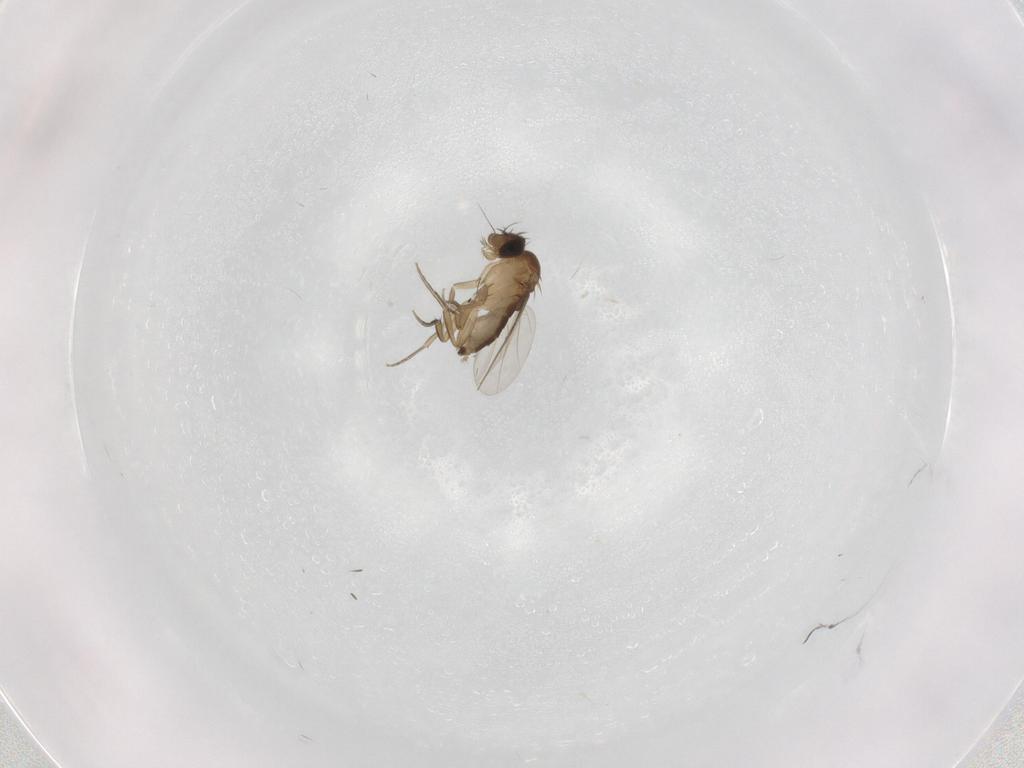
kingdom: Animalia
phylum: Arthropoda
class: Insecta
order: Diptera
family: Phoridae
